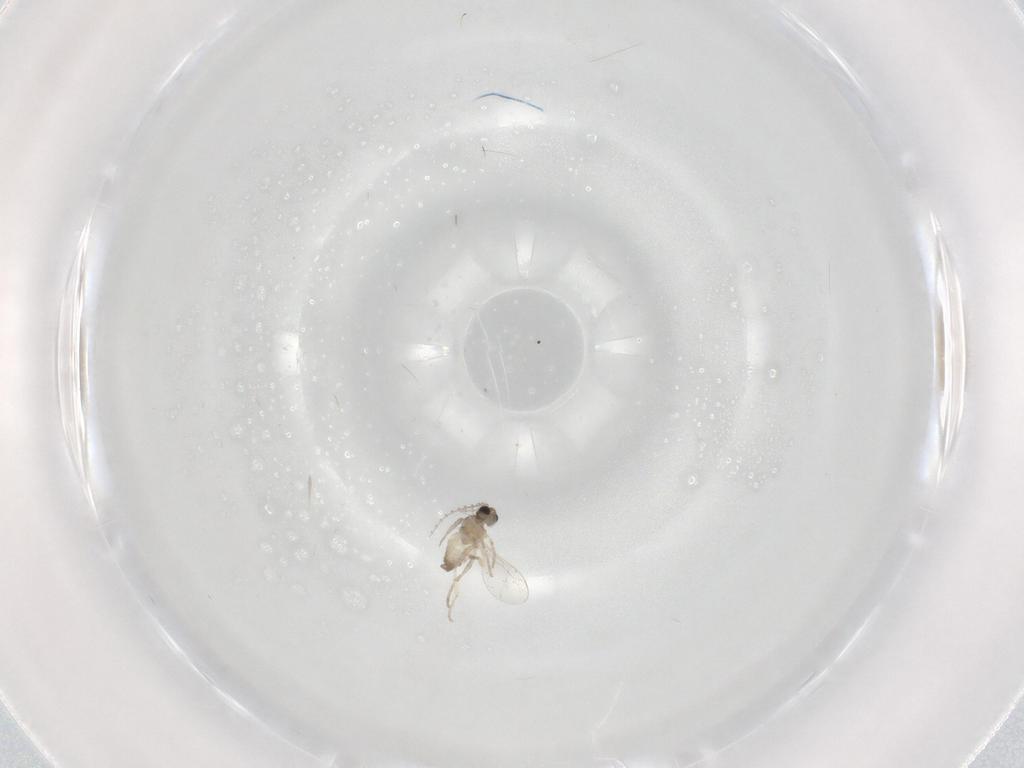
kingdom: Animalia
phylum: Arthropoda
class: Insecta
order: Diptera
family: Cecidomyiidae
